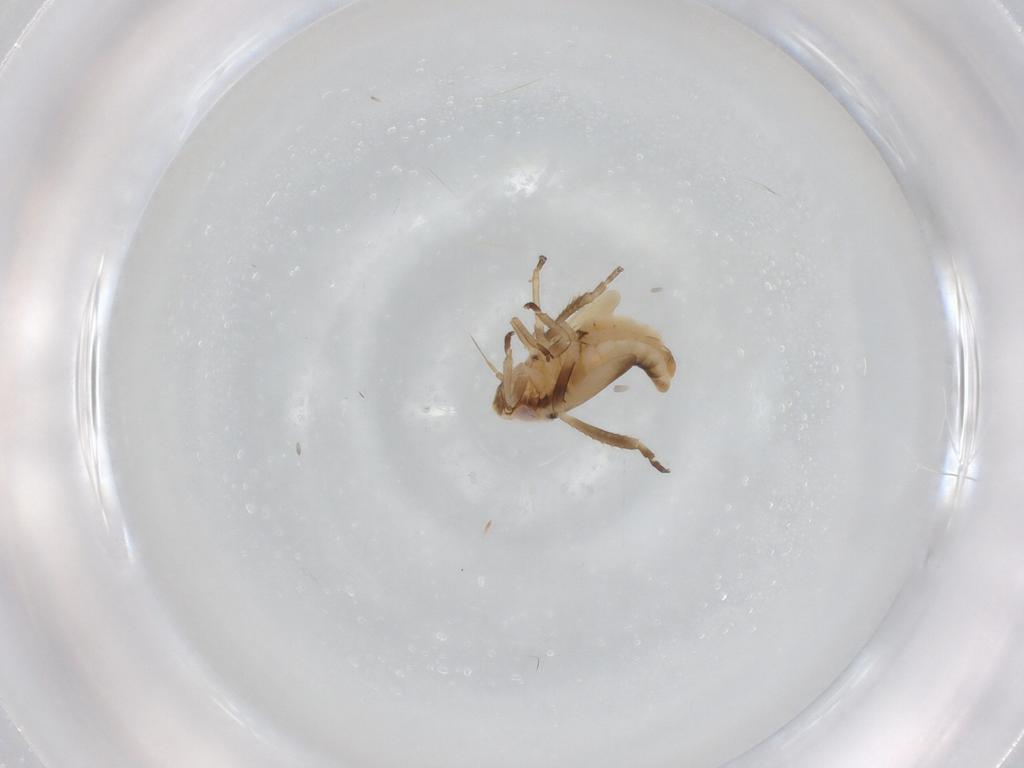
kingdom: Animalia
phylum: Arthropoda
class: Insecta
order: Hemiptera
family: Cicadellidae
